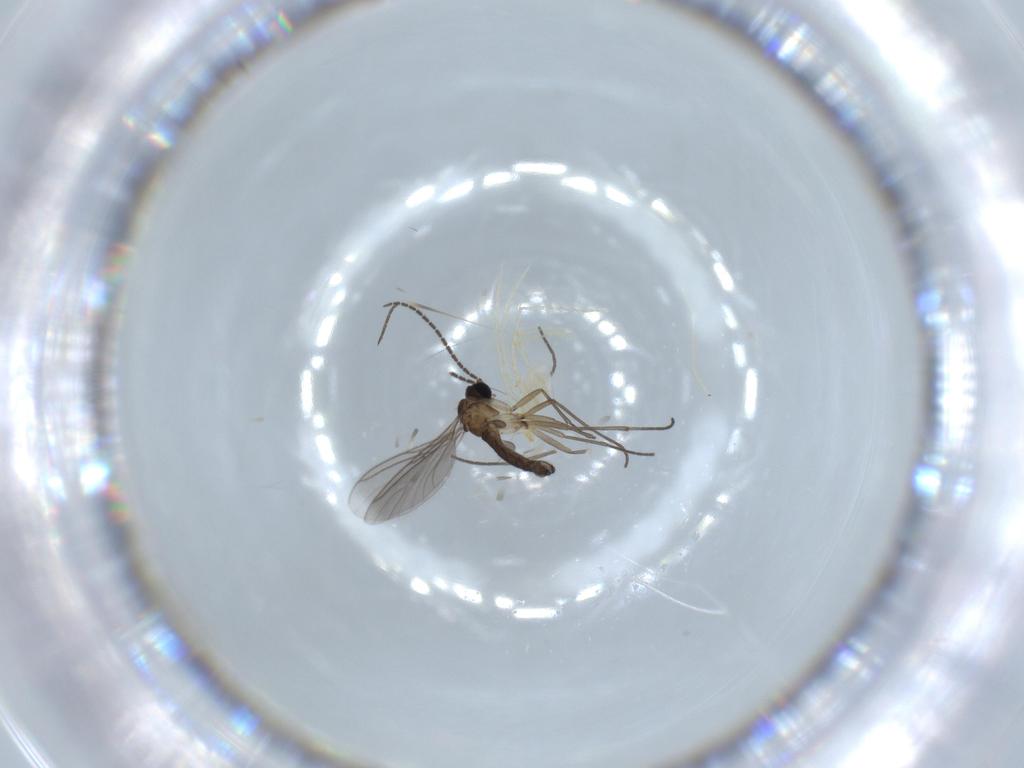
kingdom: Animalia
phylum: Arthropoda
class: Insecta
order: Diptera
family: Sciaridae
